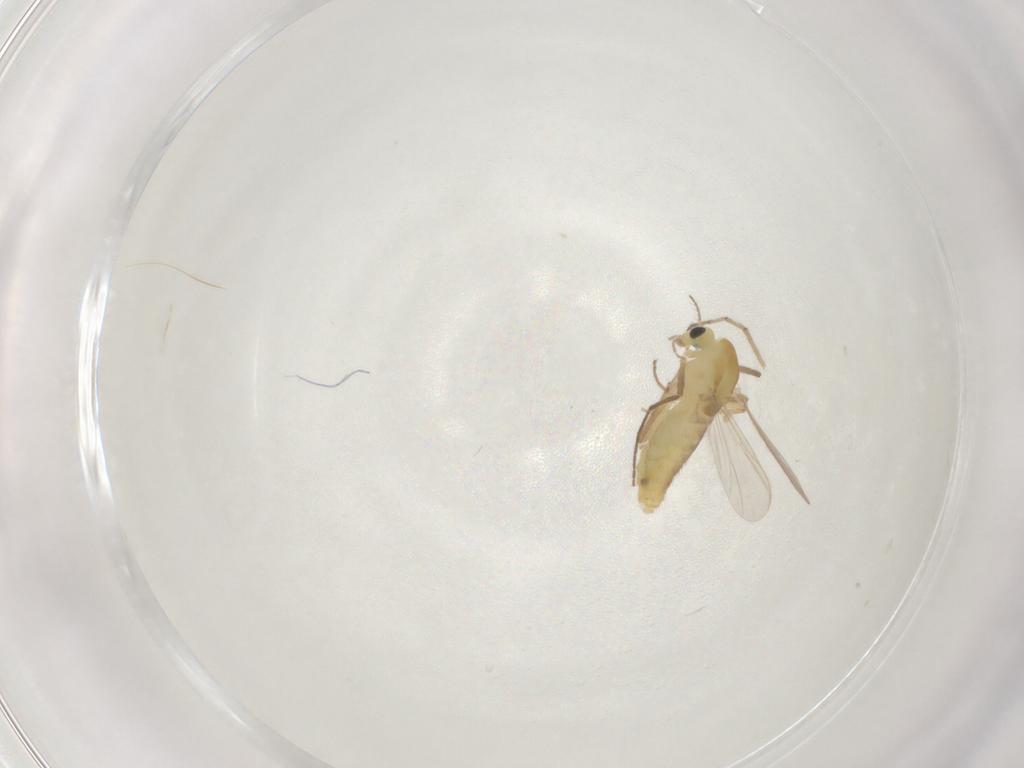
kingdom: Animalia
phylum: Arthropoda
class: Insecta
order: Diptera
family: Chironomidae
